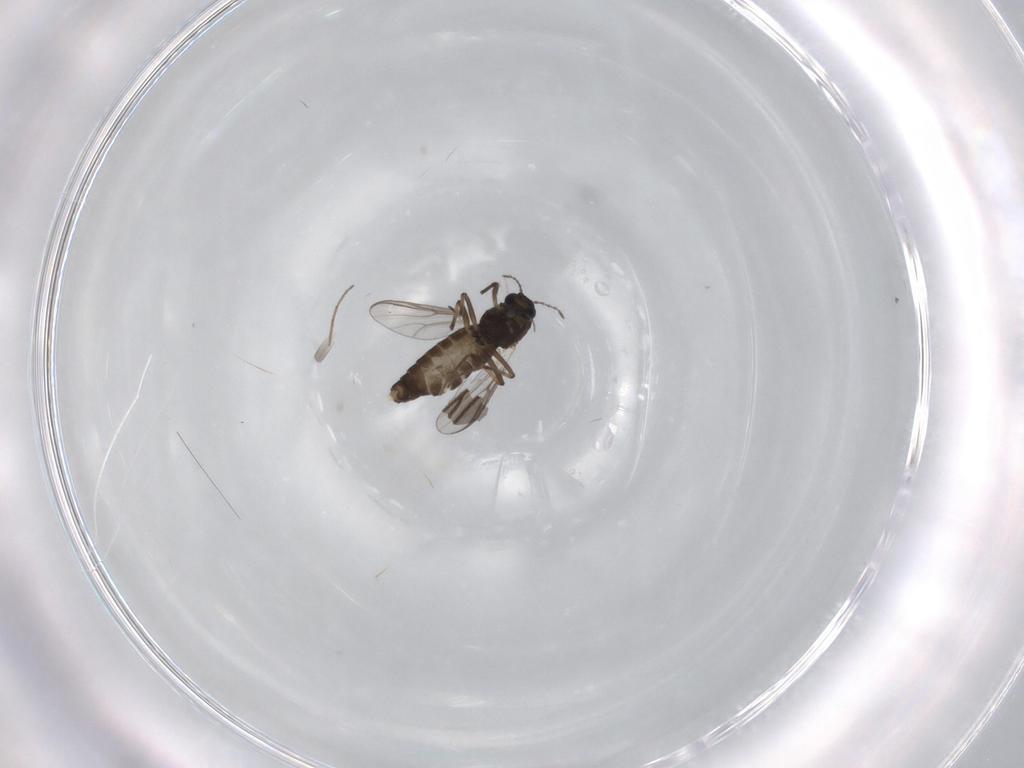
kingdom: Animalia
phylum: Arthropoda
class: Insecta
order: Diptera
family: Chironomidae
